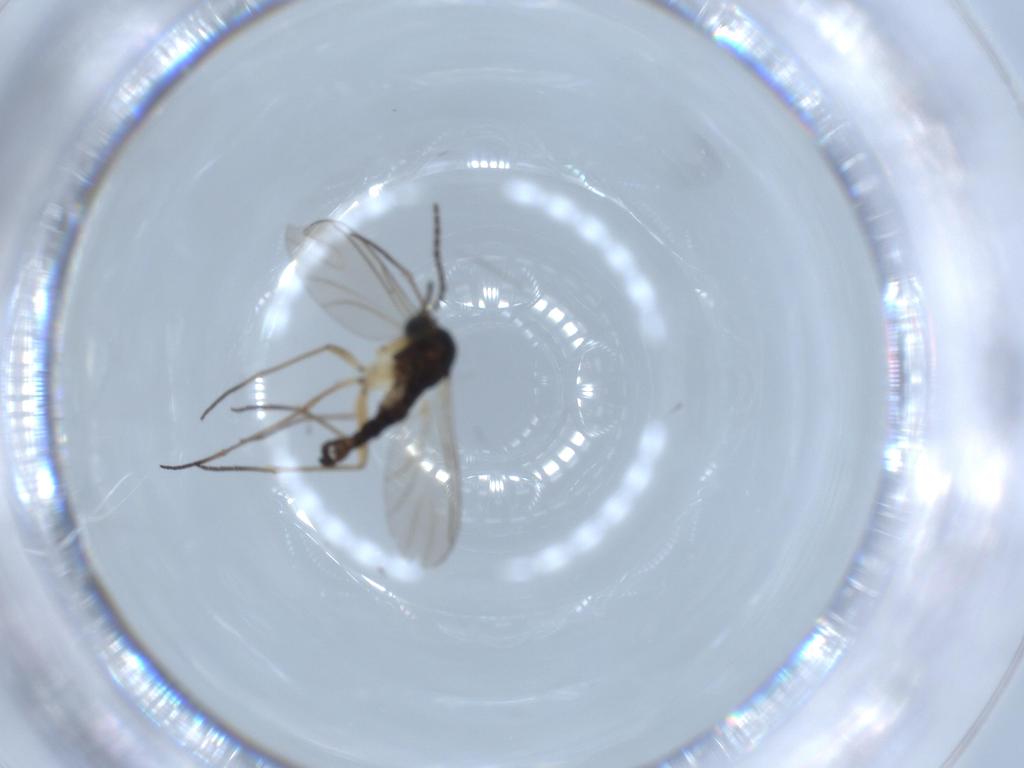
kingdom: Animalia
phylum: Arthropoda
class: Insecta
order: Diptera
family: Sciaridae
